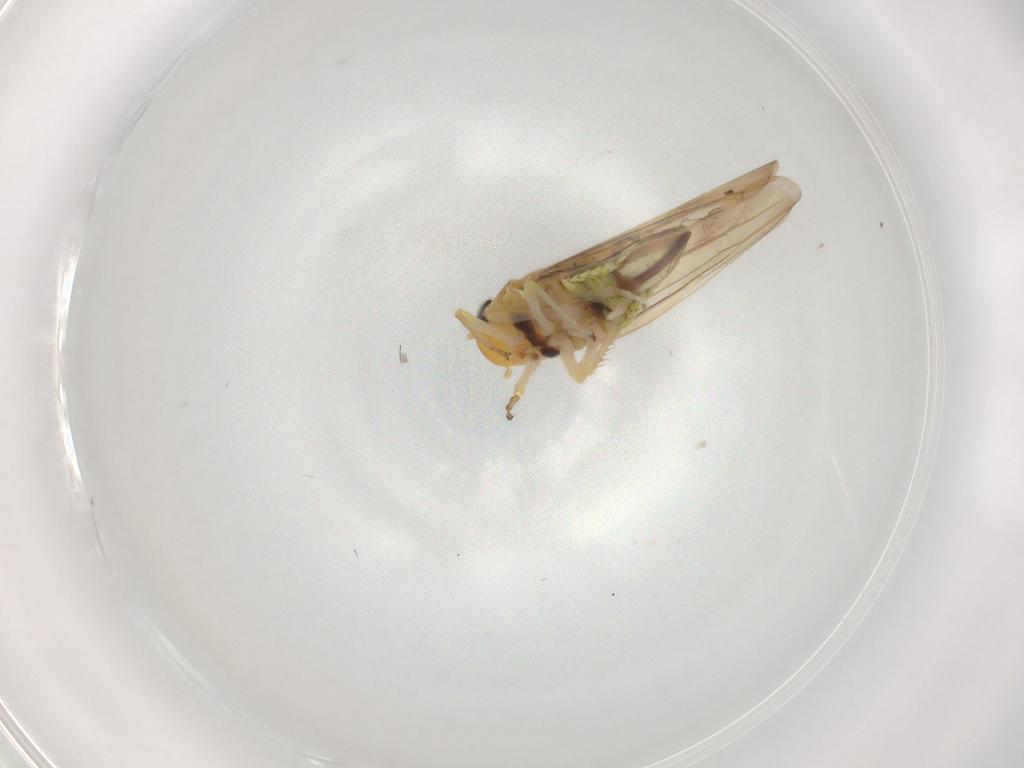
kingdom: Animalia
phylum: Arthropoda
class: Insecta
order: Hemiptera
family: Cicadellidae
